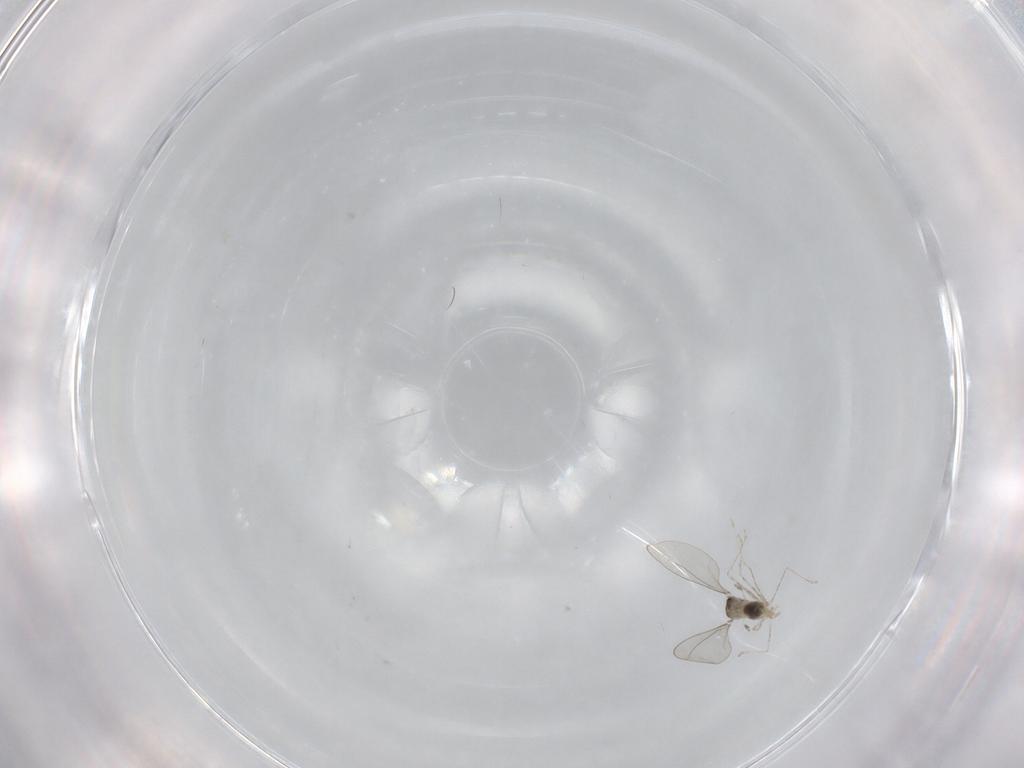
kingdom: Animalia
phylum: Arthropoda
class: Insecta
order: Diptera
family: Cecidomyiidae
